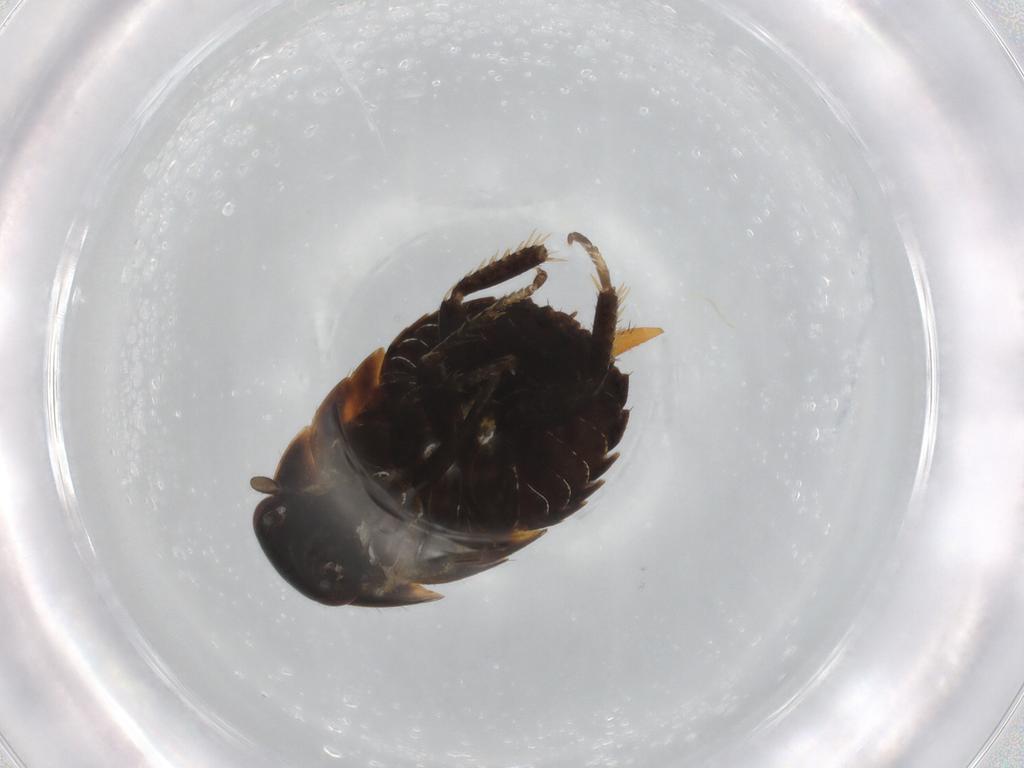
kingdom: Animalia
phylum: Arthropoda
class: Insecta
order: Blattodea
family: Pseudophyllodromiidae
